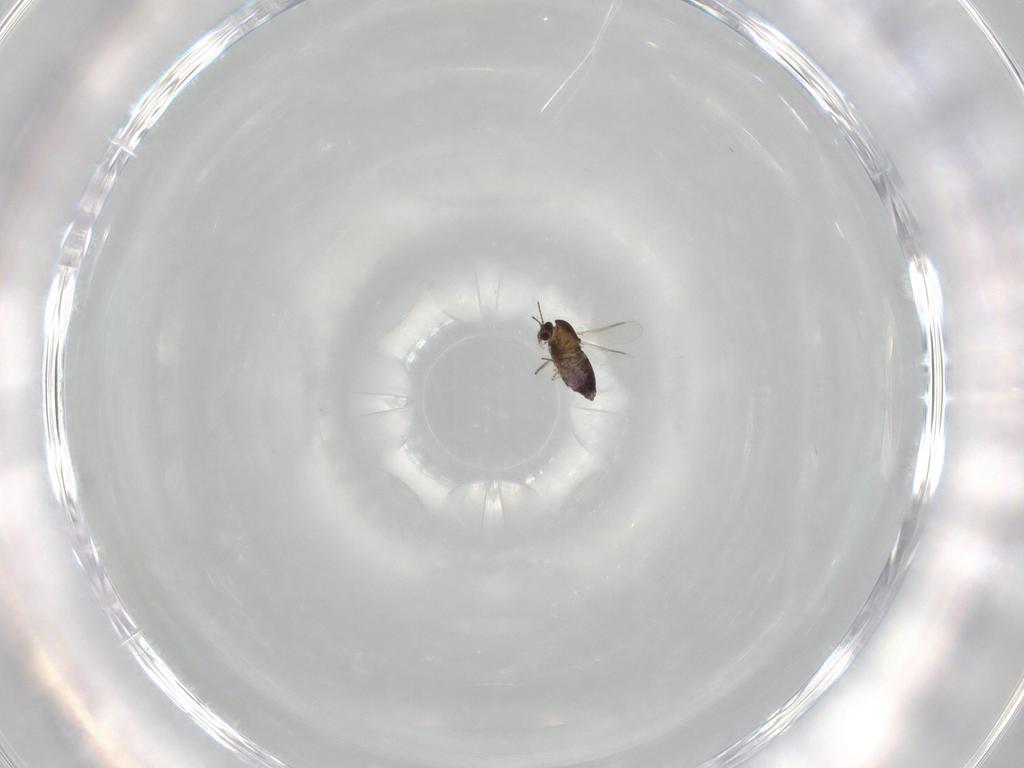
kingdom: Animalia
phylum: Arthropoda
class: Insecta
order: Diptera
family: Chironomidae
